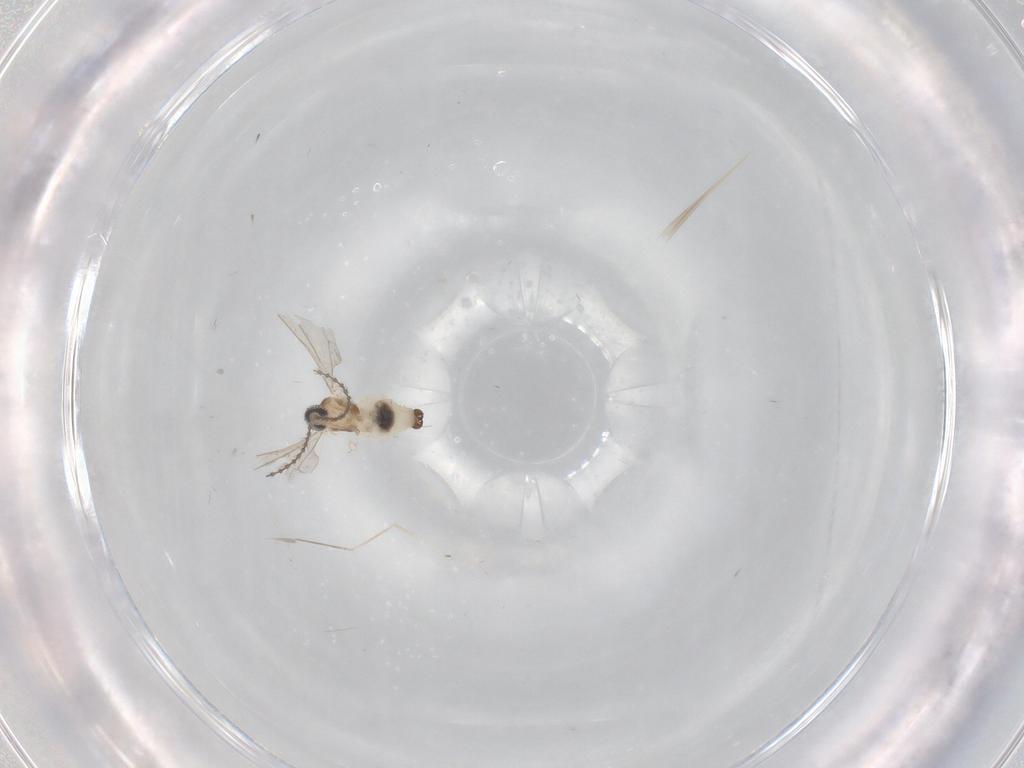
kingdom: Animalia
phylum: Arthropoda
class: Insecta
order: Diptera
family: Cecidomyiidae
